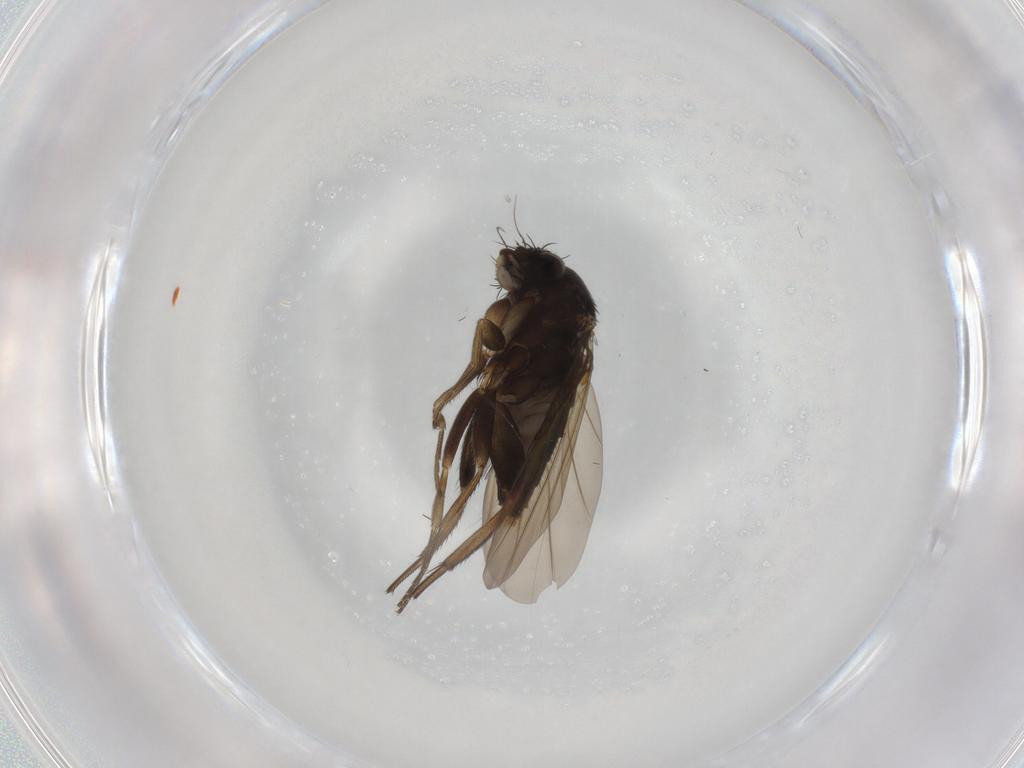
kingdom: Animalia
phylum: Arthropoda
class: Insecta
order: Diptera
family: Phoridae
